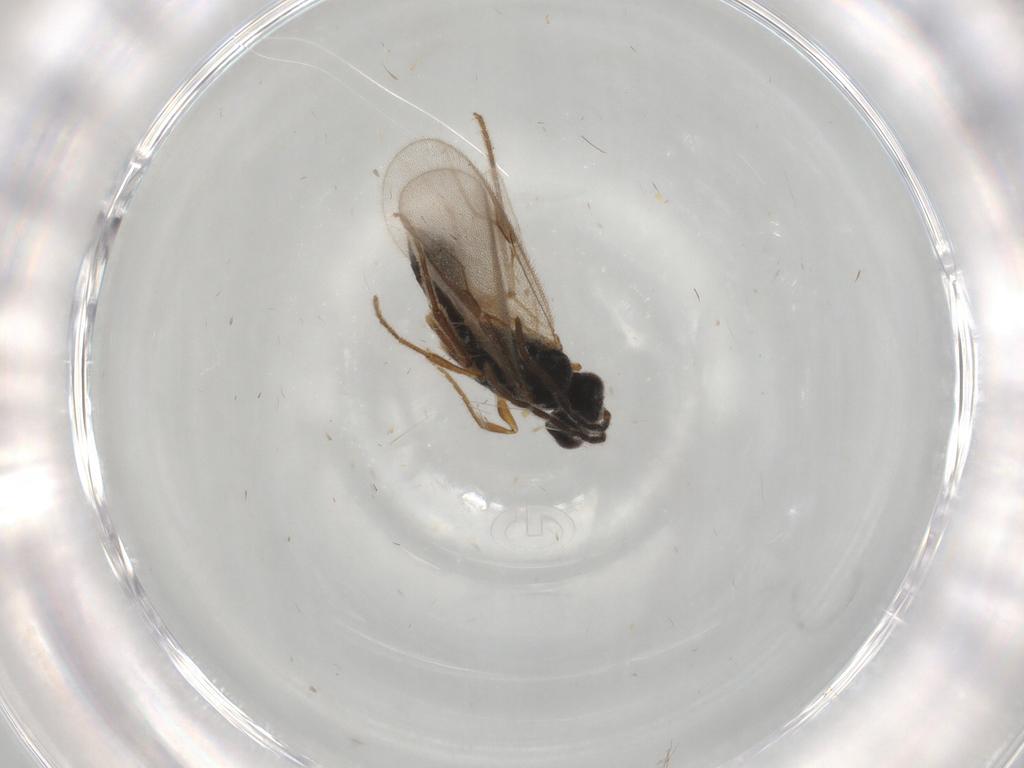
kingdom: Animalia
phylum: Arthropoda
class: Insecta
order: Hymenoptera
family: Dryinidae
